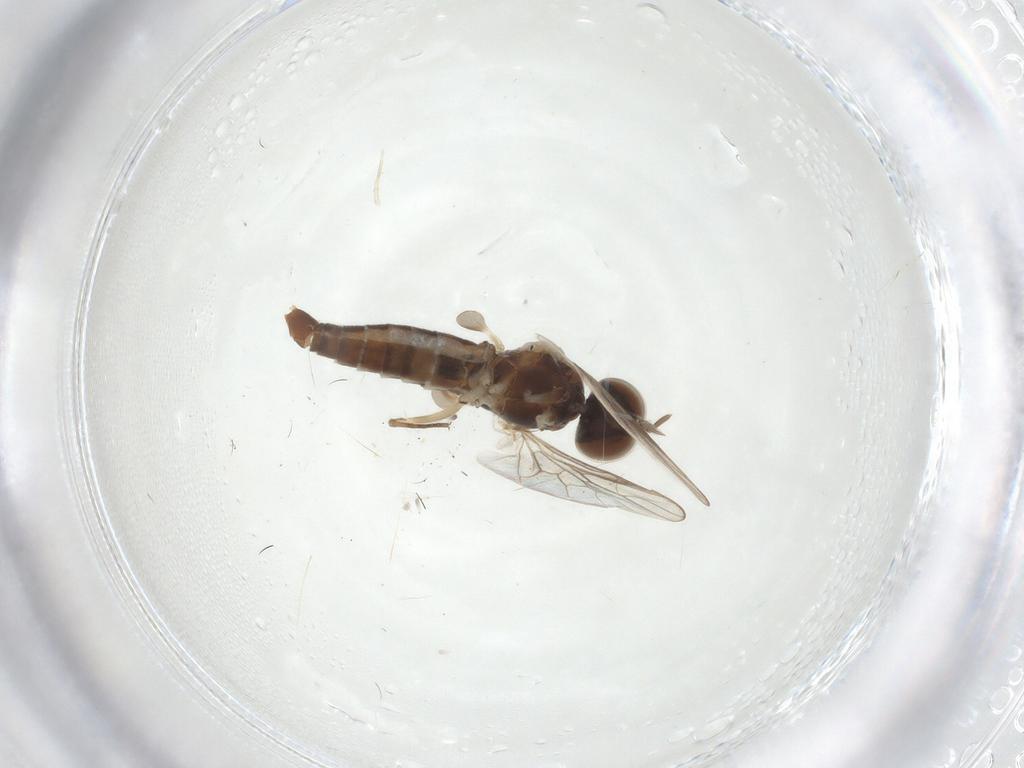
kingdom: Animalia
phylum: Arthropoda
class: Insecta
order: Diptera
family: Scenopinidae
